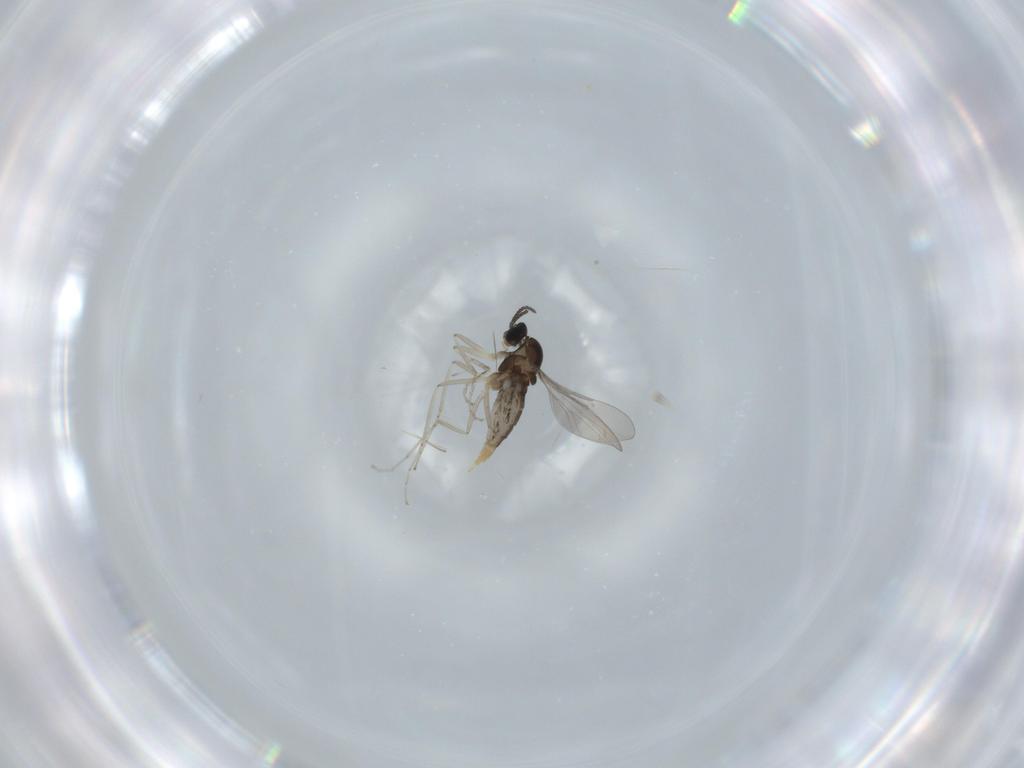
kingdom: Animalia
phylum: Arthropoda
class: Insecta
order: Diptera
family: Cecidomyiidae
